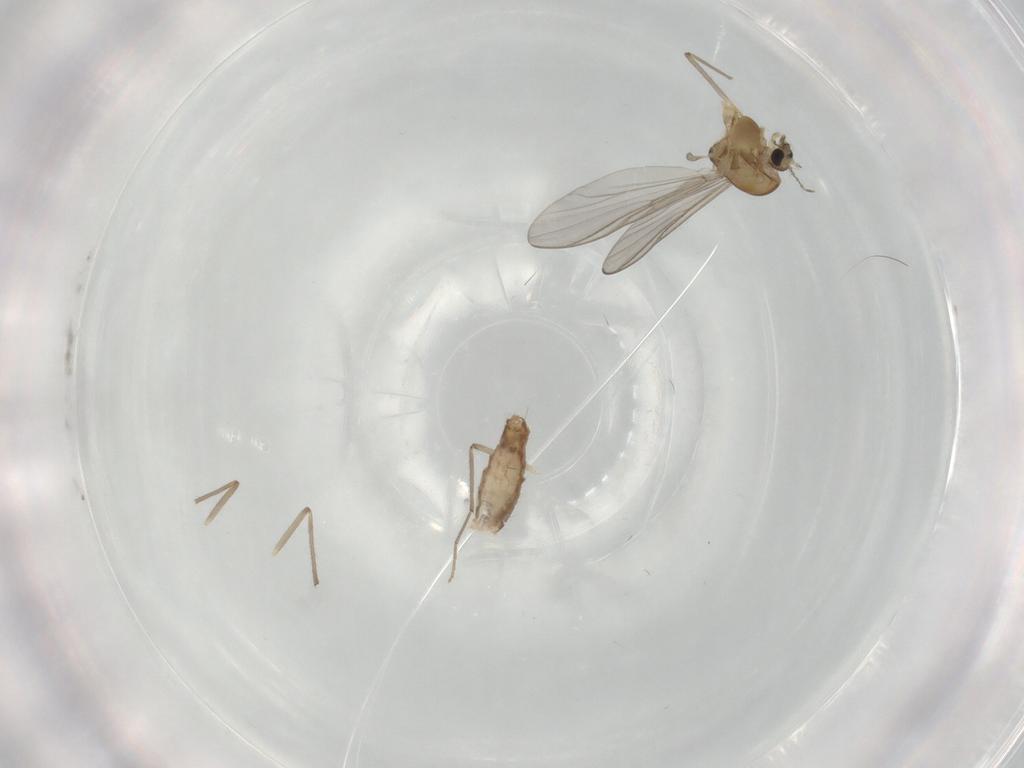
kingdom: Animalia
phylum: Arthropoda
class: Insecta
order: Diptera
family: Chironomidae
